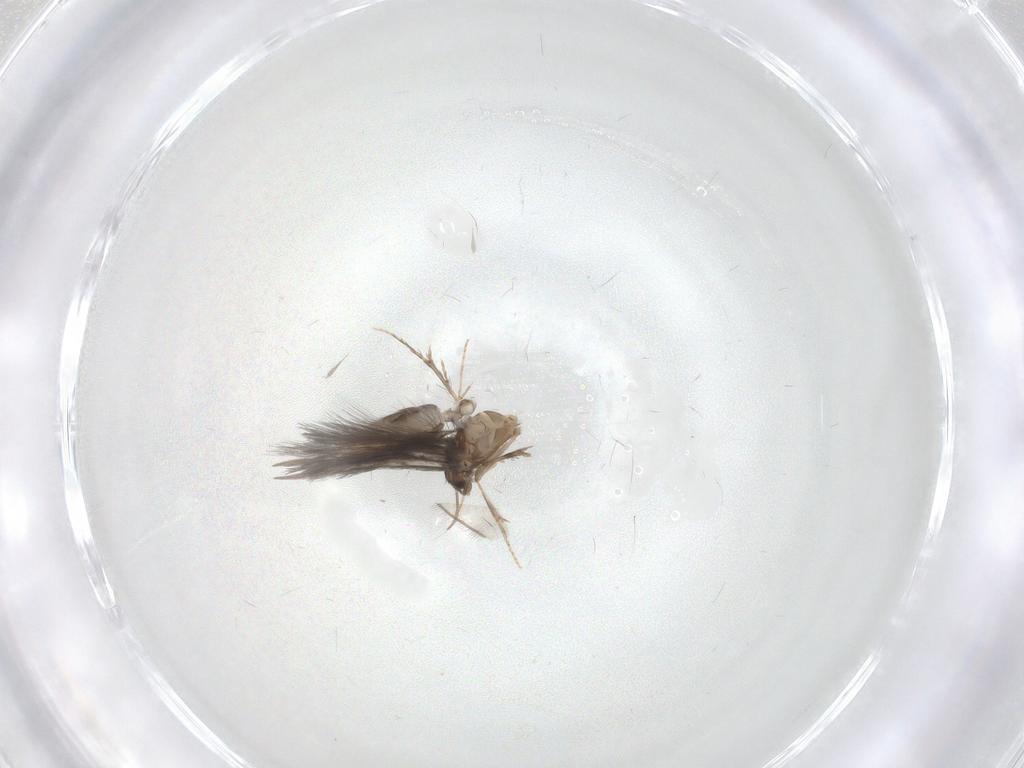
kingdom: Animalia
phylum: Arthropoda
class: Insecta
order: Trichoptera
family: Hydroptilidae
